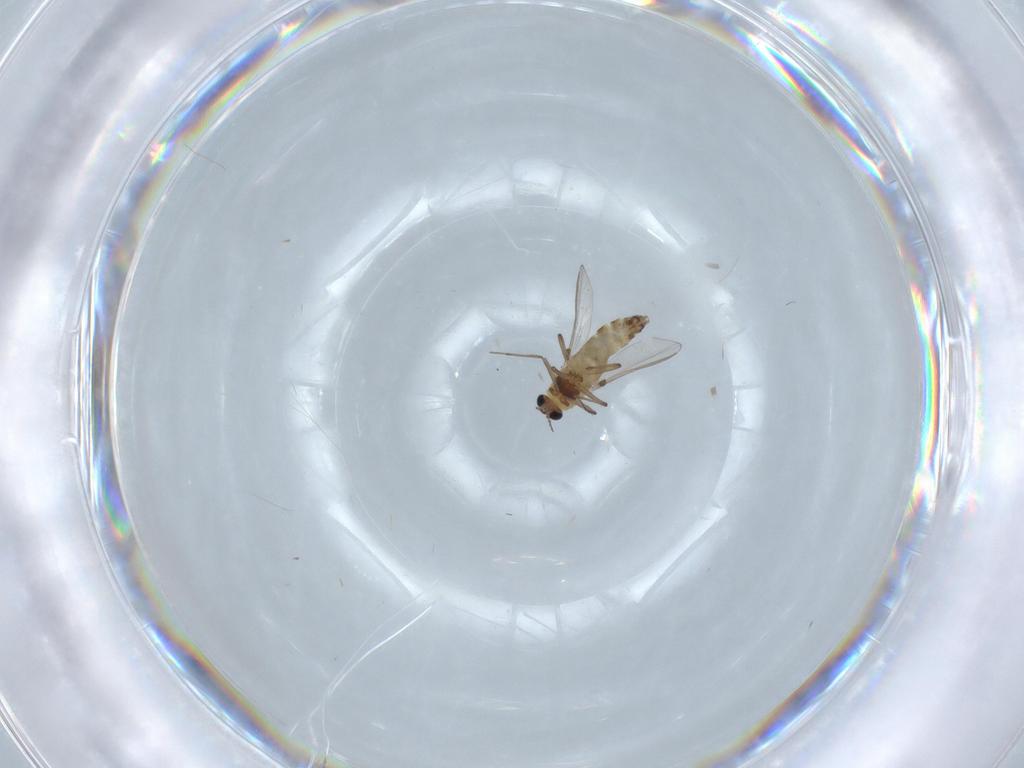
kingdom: Animalia
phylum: Arthropoda
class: Insecta
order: Diptera
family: Chironomidae
